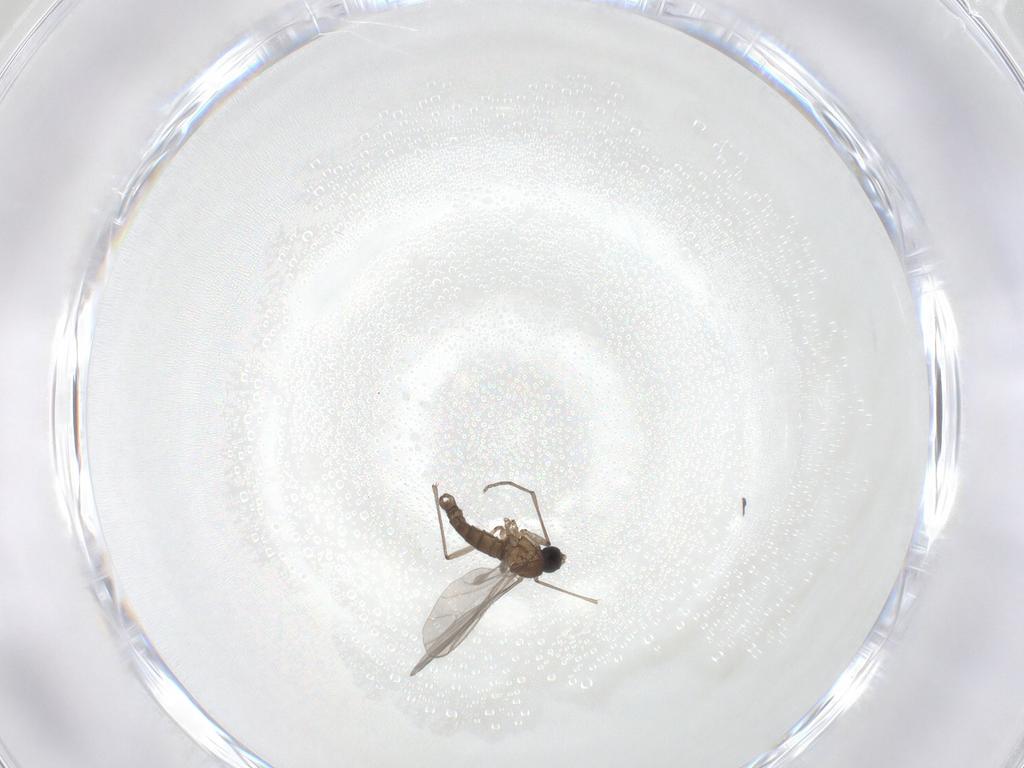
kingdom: Animalia
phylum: Arthropoda
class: Insecta
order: Diptera
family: Sciaridae
